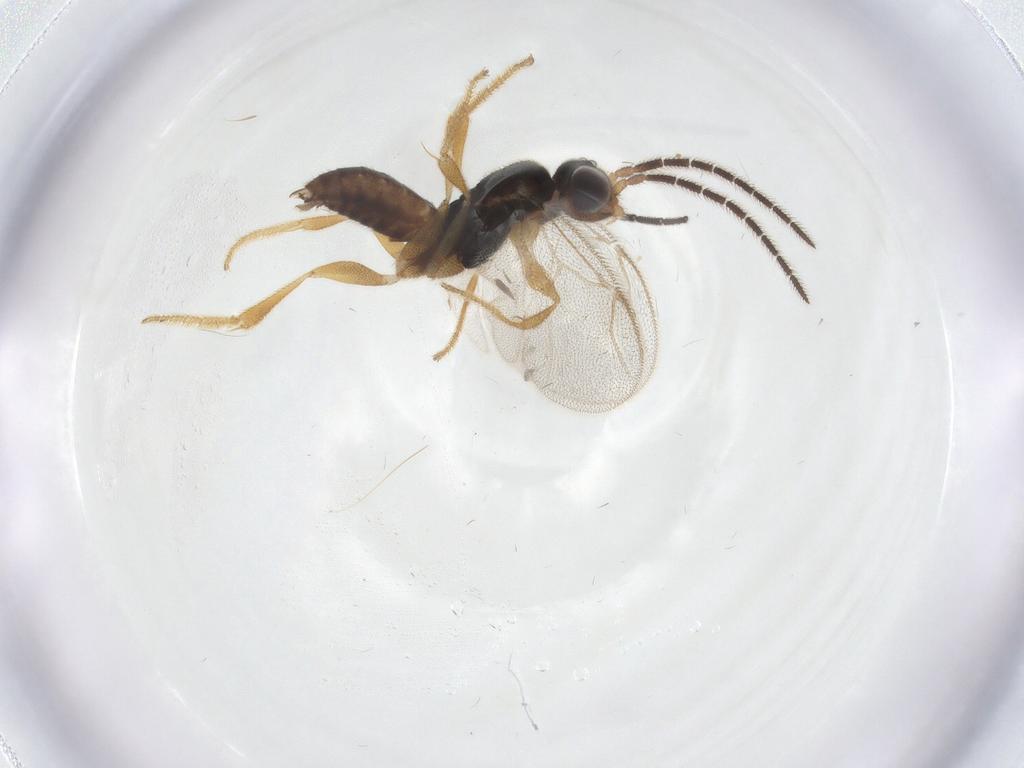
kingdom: Animalia
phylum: Arthropoda
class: Insecta
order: Hymenoptera
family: Dryinidae
